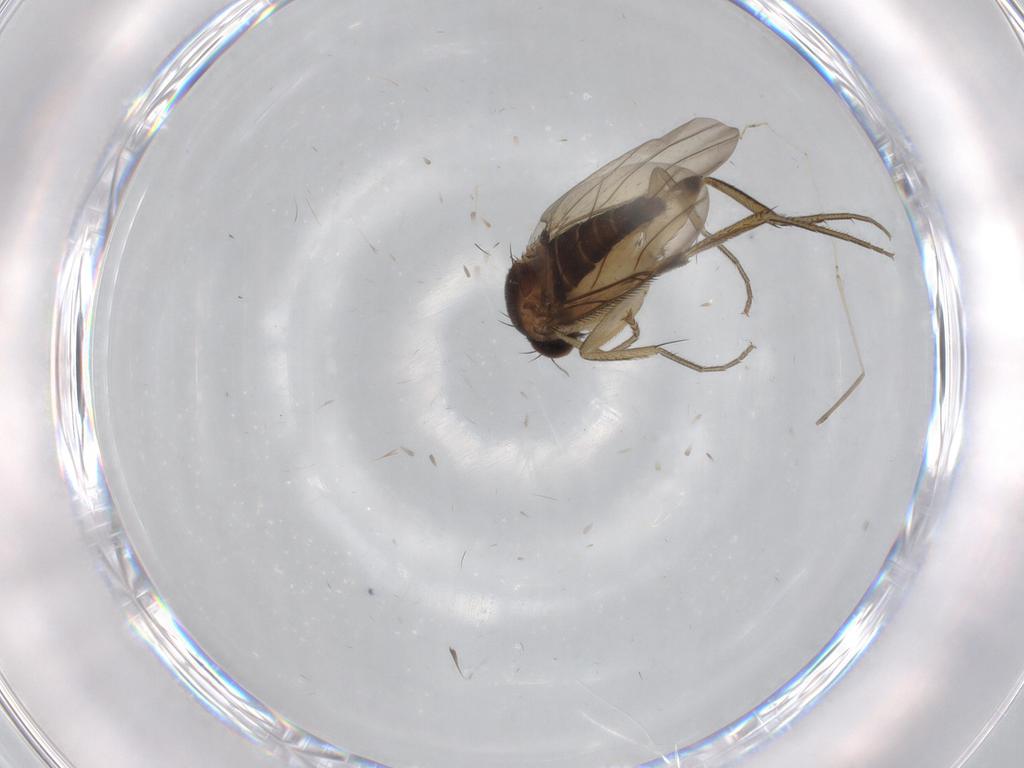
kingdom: Animalia
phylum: Arthropoda
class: Insecta
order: Diptera
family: Phoridae
